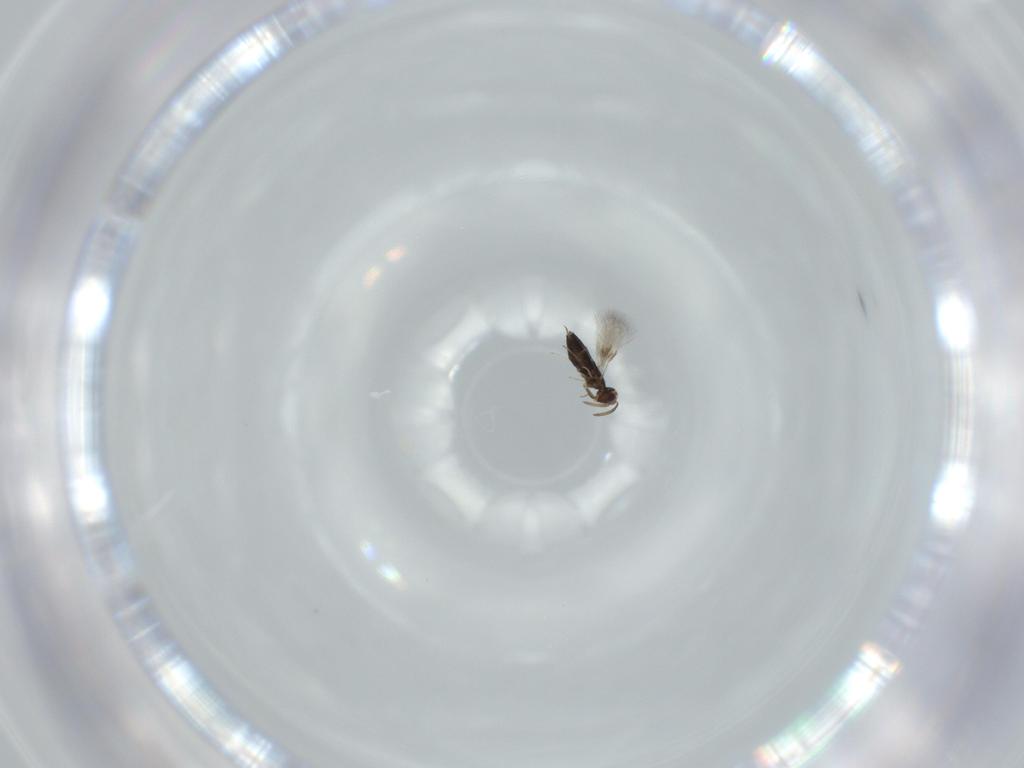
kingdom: Animalia
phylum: Arthropoda
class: Insecta
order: Hymenoptera
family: Signiphoridae
